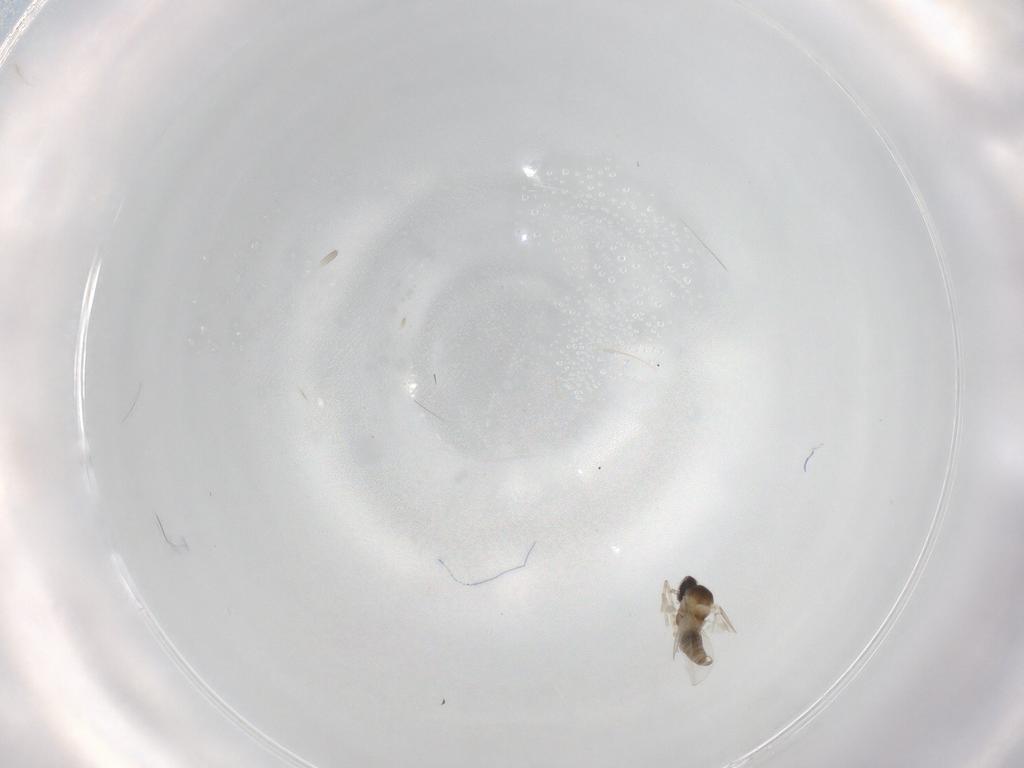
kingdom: Animalia
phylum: Arthropoda
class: Insecta
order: Diptera
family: Cecidomyiidae
